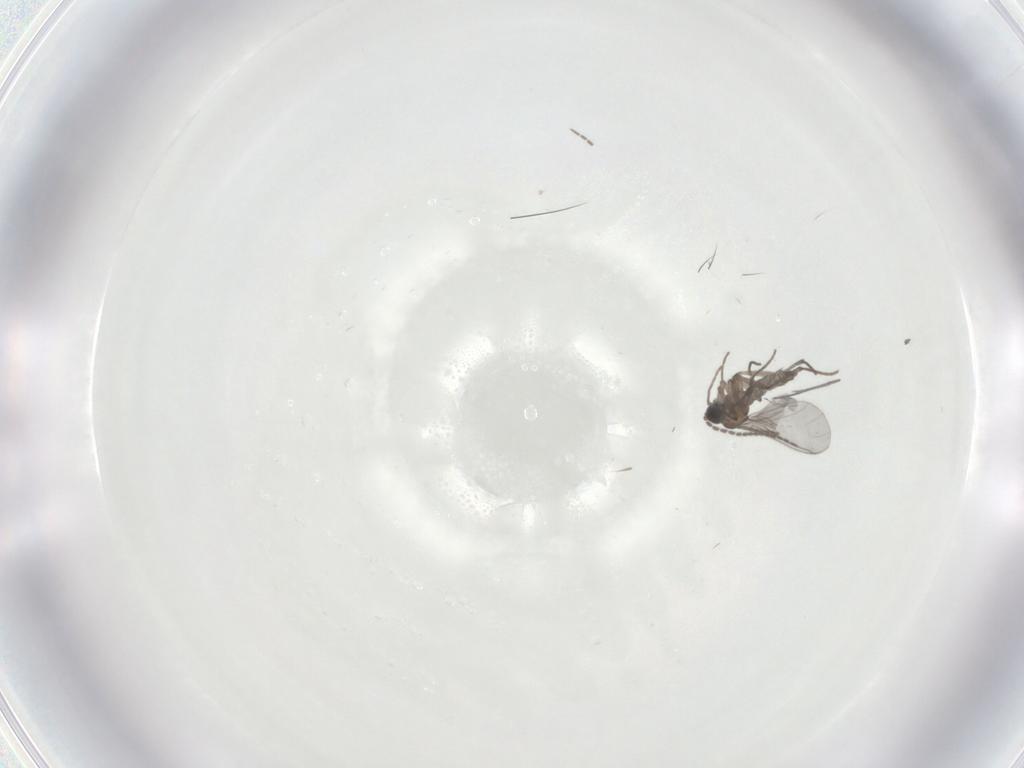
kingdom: Animalia
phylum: Arthropoda
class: Insecta
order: Diptera
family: Sciaridae
